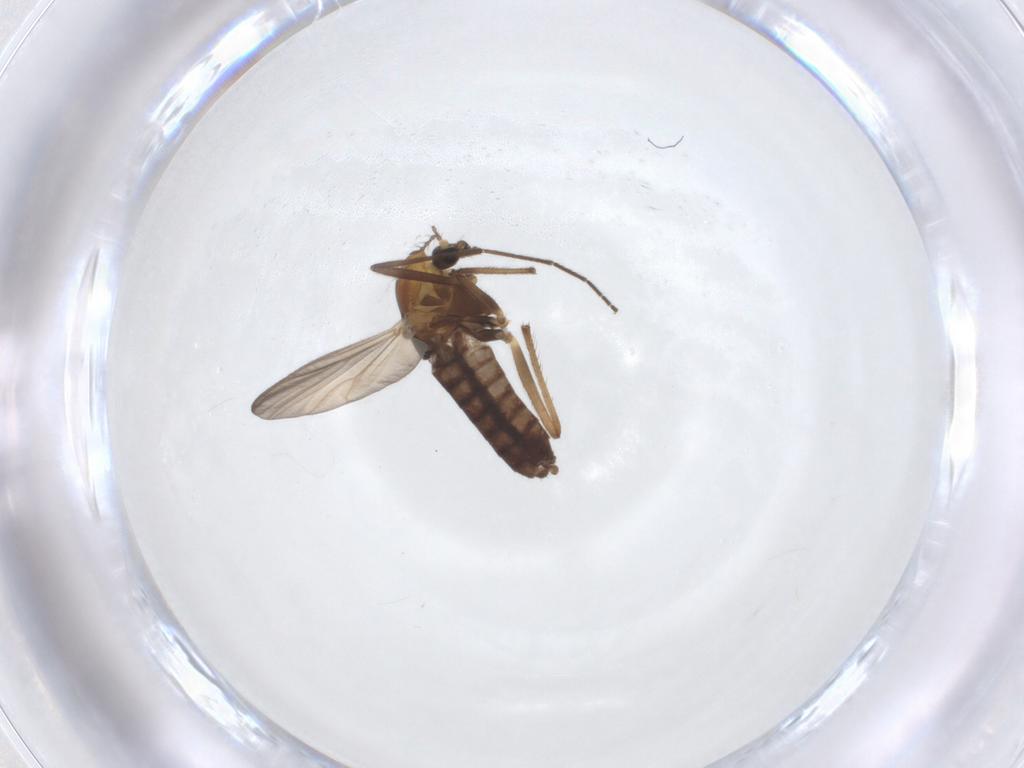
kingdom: Animalia
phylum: Arthropoda
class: Insecta
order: Diptera
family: Chironomidae
